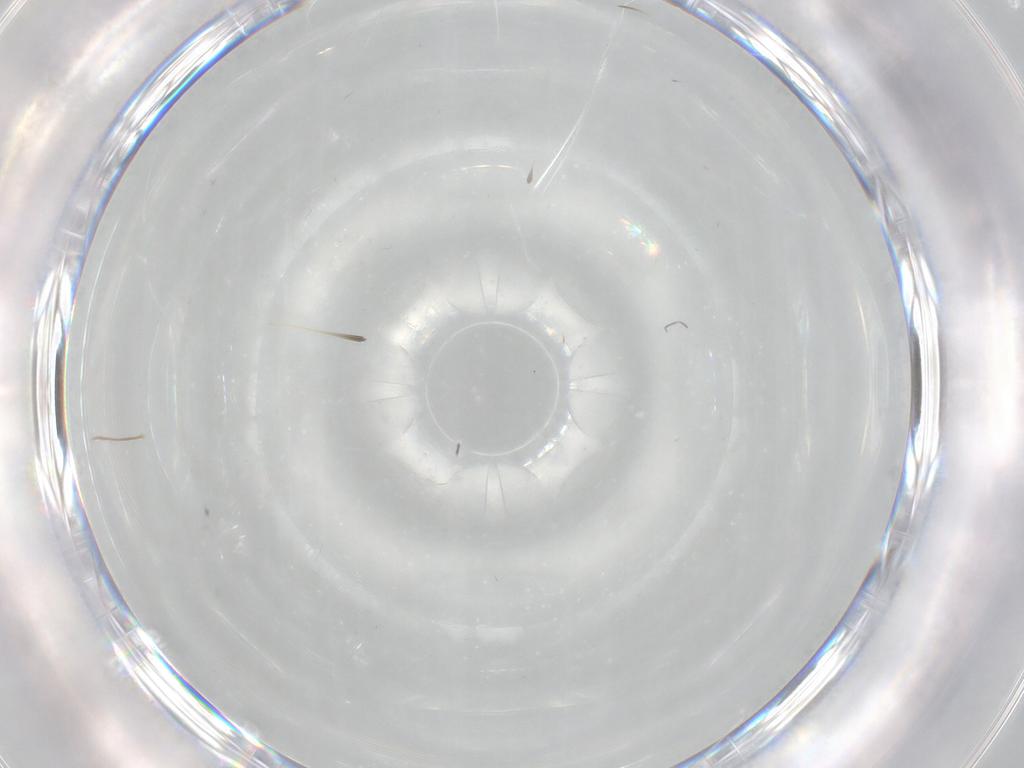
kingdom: Animalia
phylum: Arthropoda
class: Insecta
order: Diptera
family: Milichiidae
